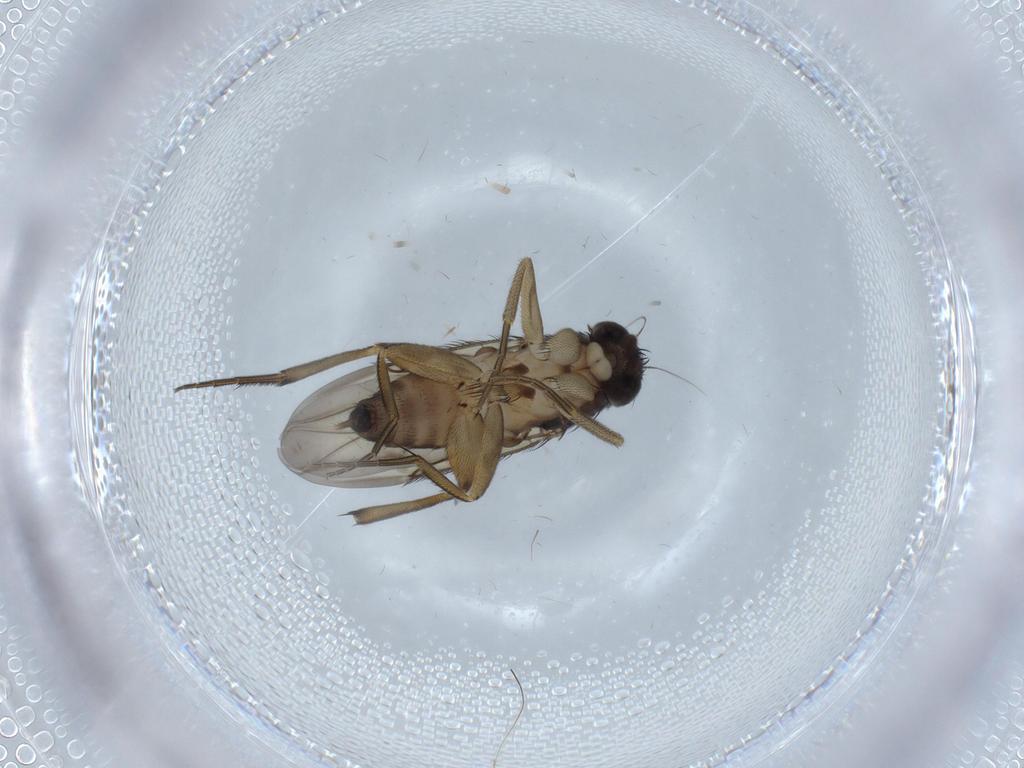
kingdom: Animalia
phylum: Arthropoda
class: Insecta
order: Diptera
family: Phoridae
